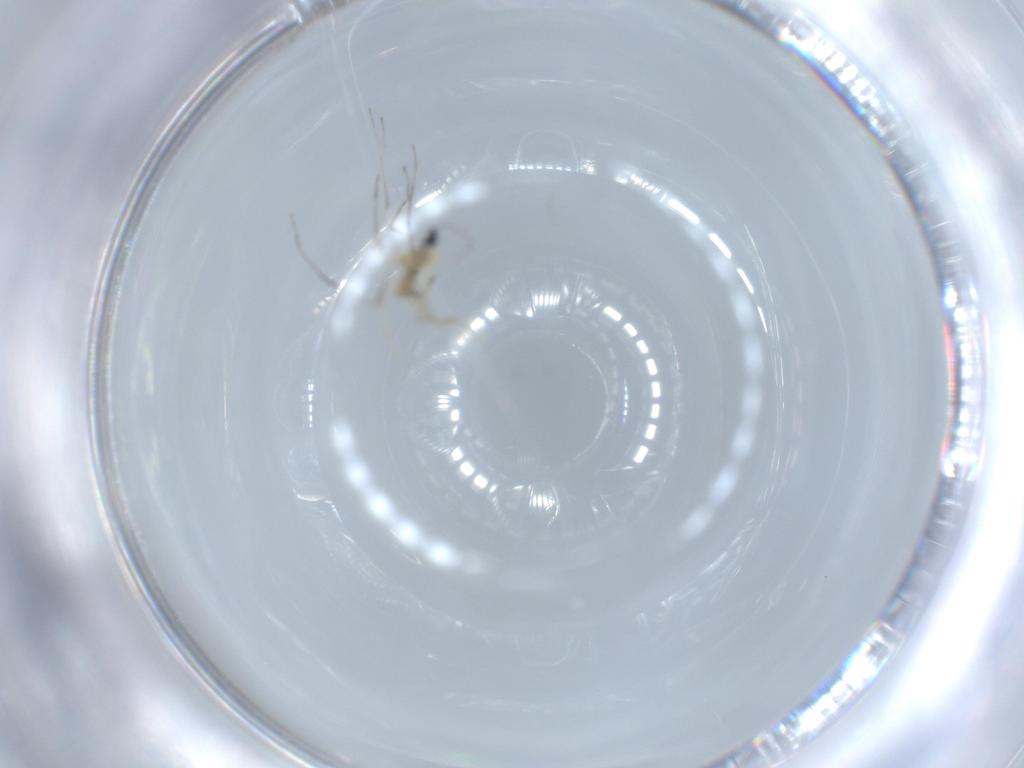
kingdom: Animalia
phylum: Arthropoda
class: Insecta
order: Diptera
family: Cecidomyiidae
